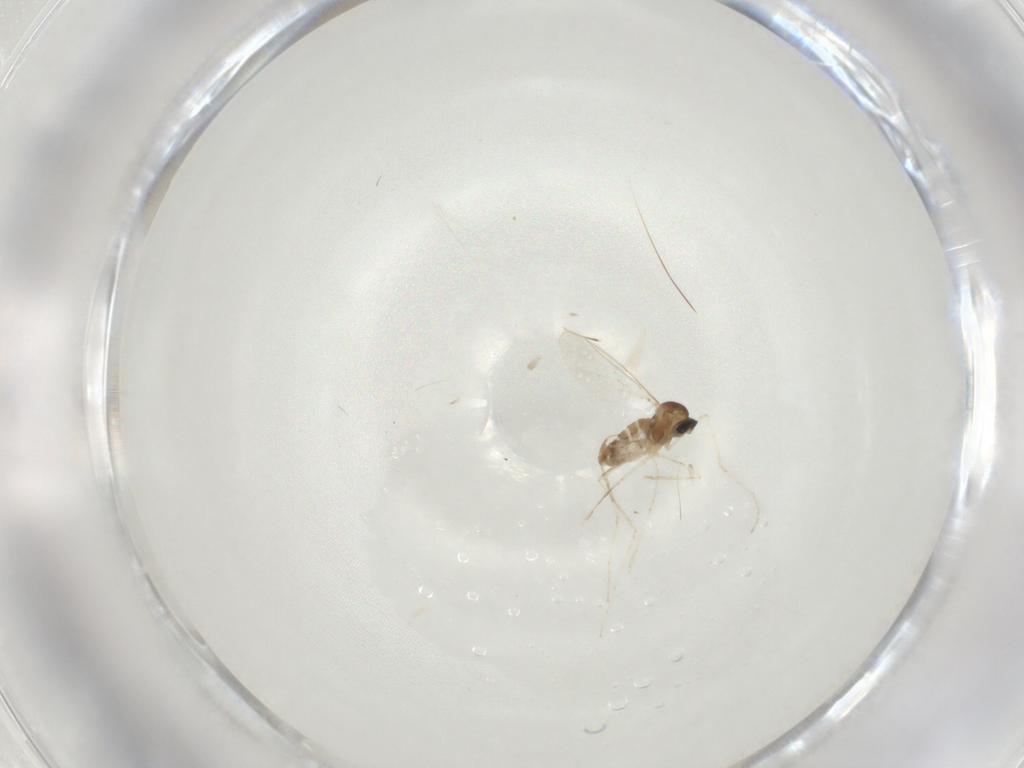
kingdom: Animalia
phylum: Arthropoda
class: Insecta
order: Diptera
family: Cecidomyiidae
